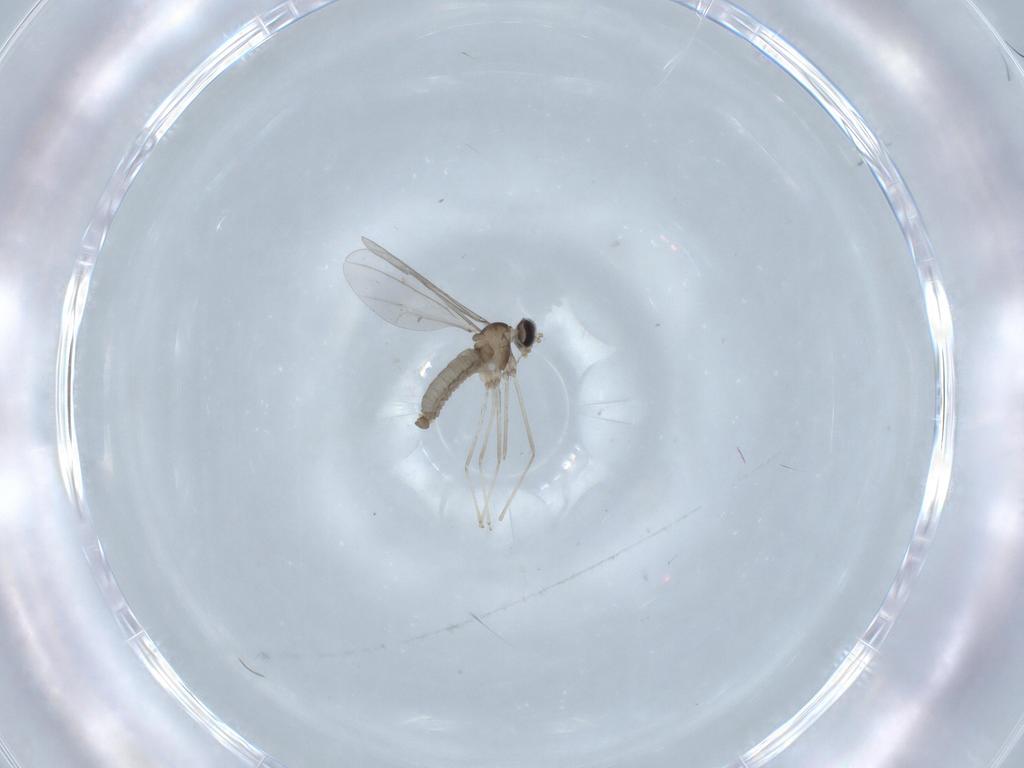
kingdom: Animalia
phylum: Arthropoda
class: Insecta
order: Diptera
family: Cecidomyiidae
